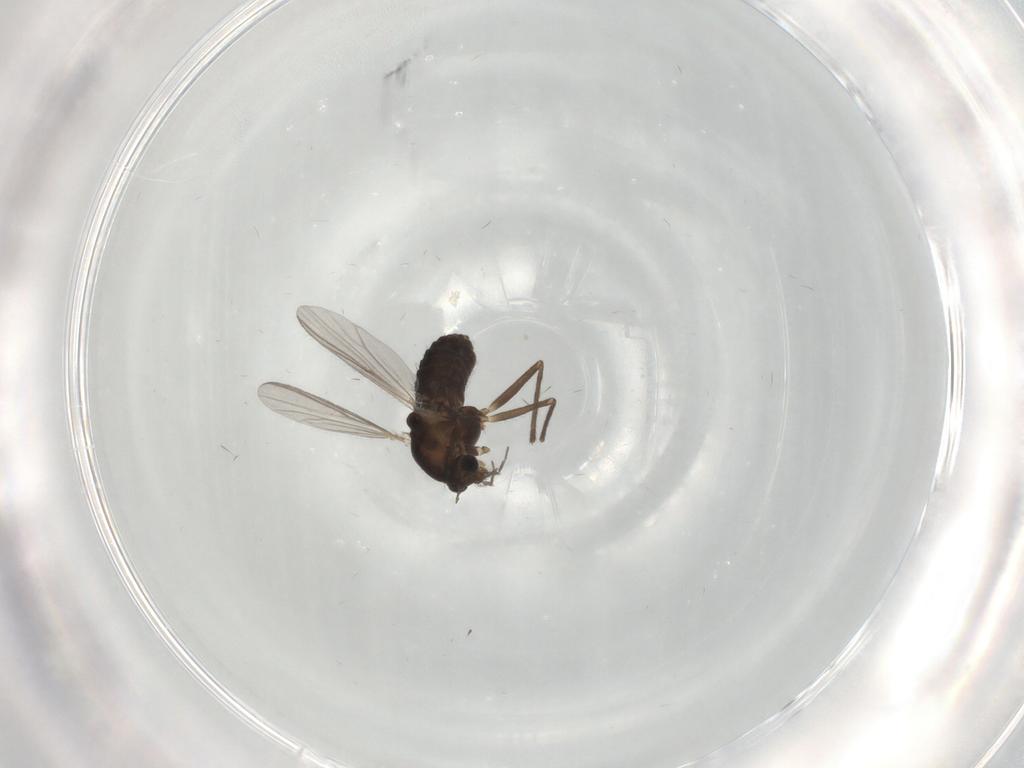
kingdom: Animalia
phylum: Arthropoda
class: Insecta
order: Diptera
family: Chironomidae
